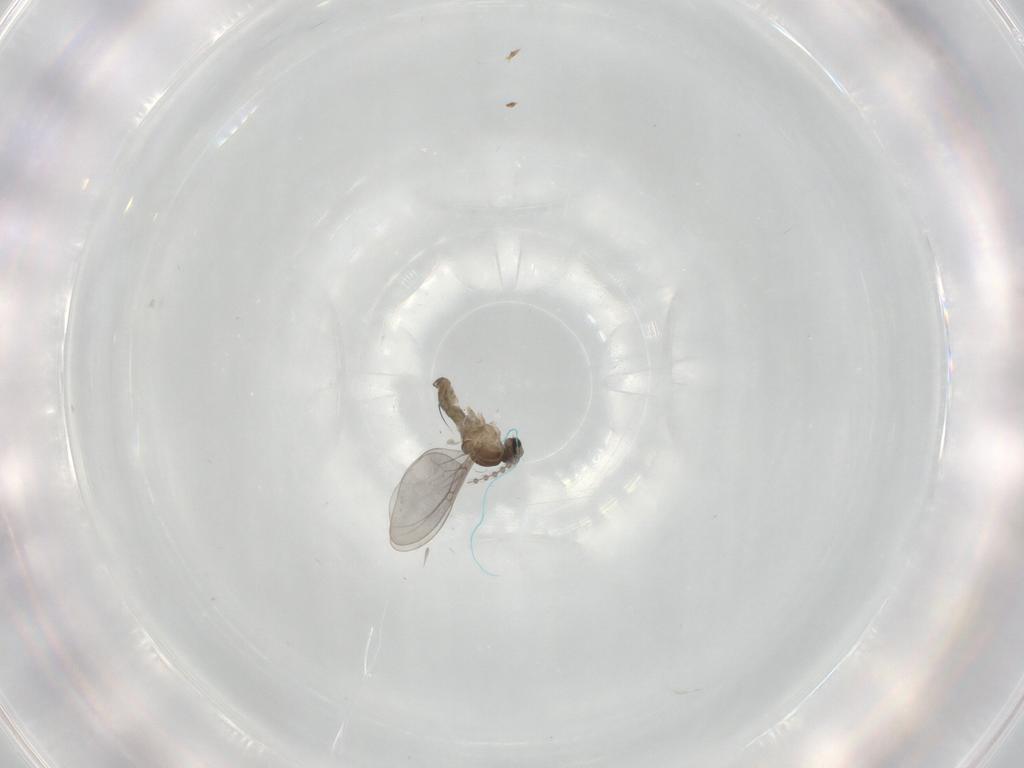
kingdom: Animalia
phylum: Arthropoda
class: Insecta
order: Diptera
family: Cecidomyiidae
